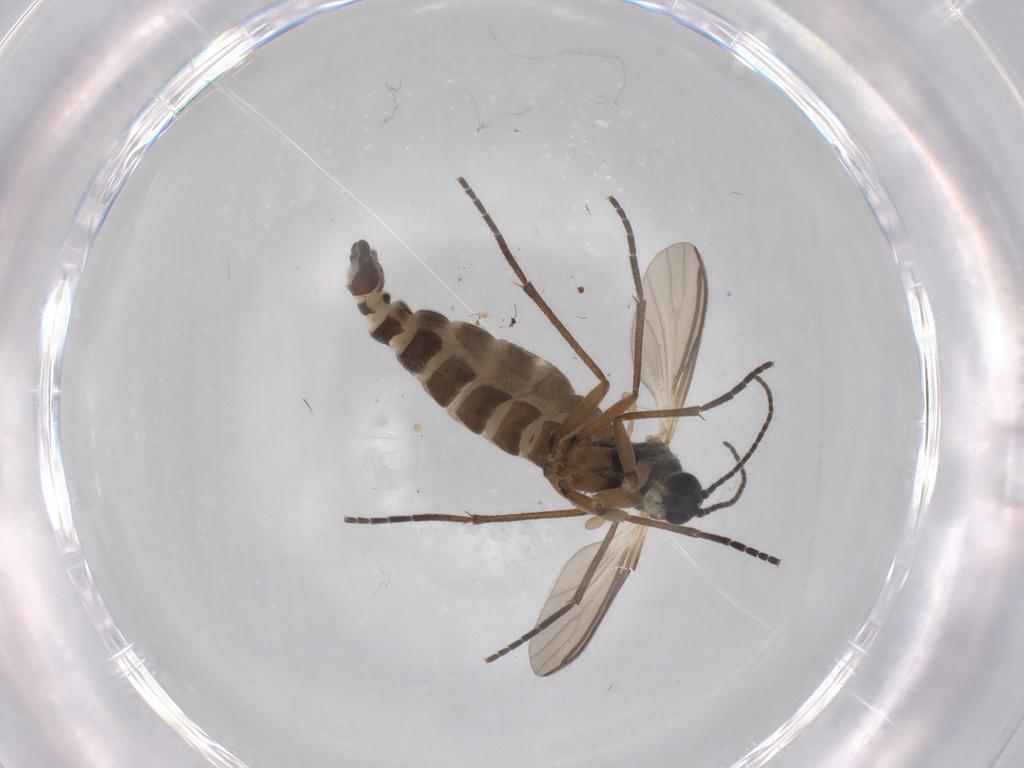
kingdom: Animalia
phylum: Arthropoda
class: Insecta
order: Diptera
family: Sciaridae
